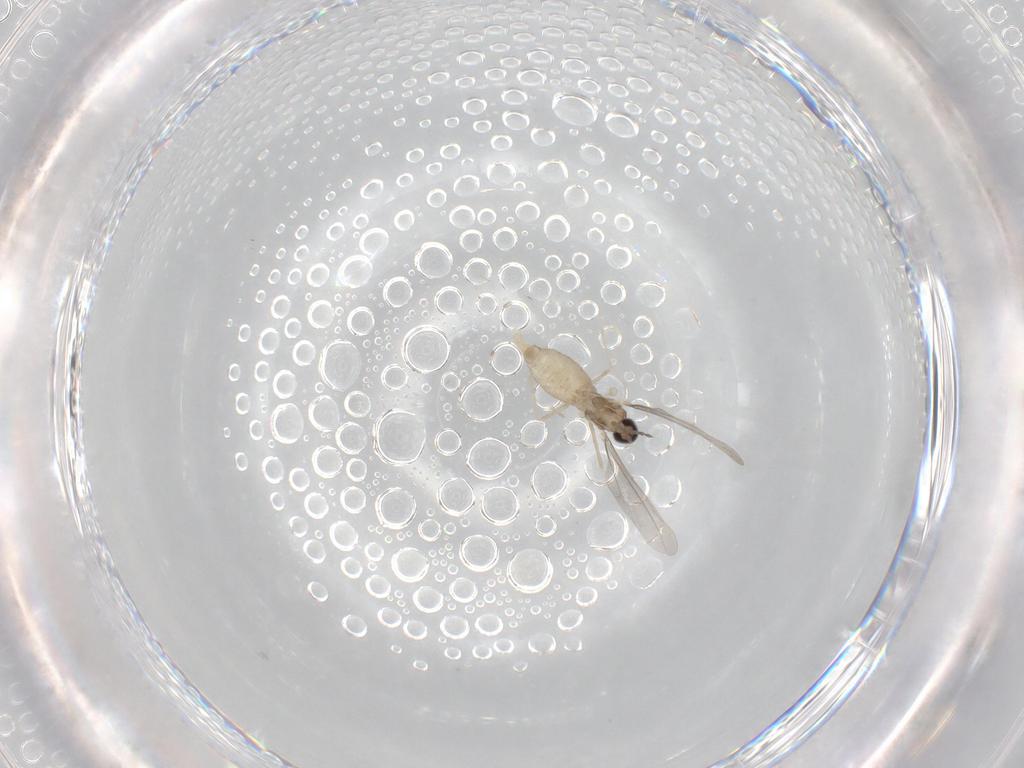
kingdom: Animalia
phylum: Arthropoda
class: Insecta
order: Diptera
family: Cecidomyiidae
